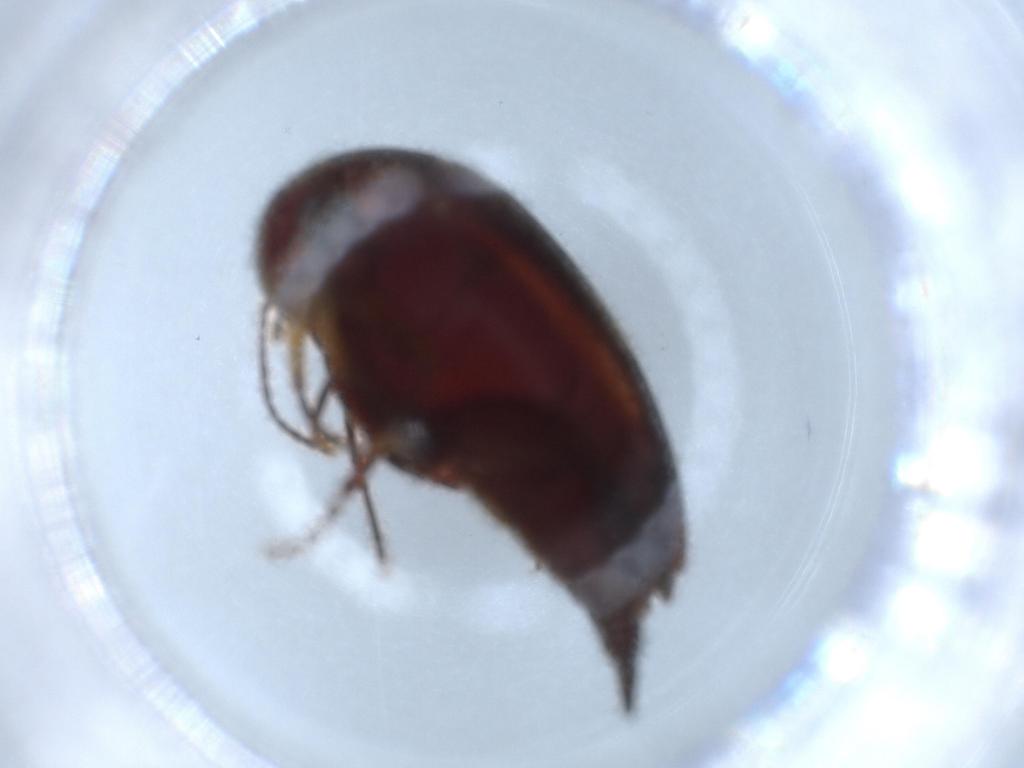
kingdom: Animalia
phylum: Arthropoda
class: Insecta
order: Coleoptera
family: Mordellidae
